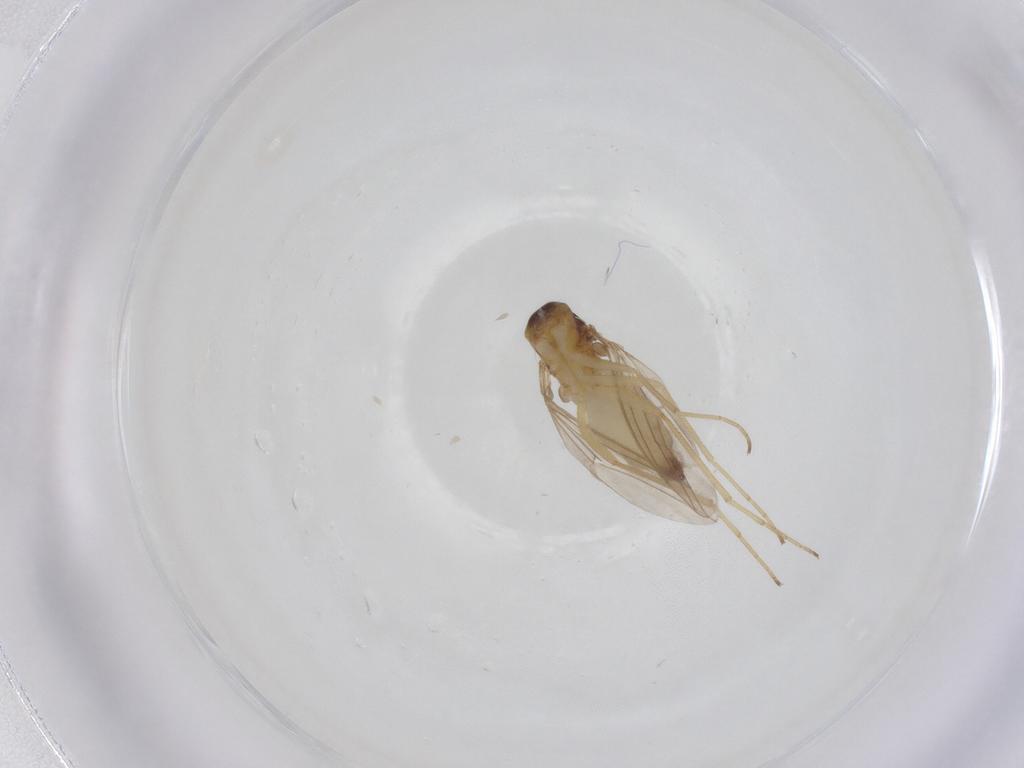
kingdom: Animalia
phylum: Arthropoda
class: Insecta
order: Diptera
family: Dolichopodidae
